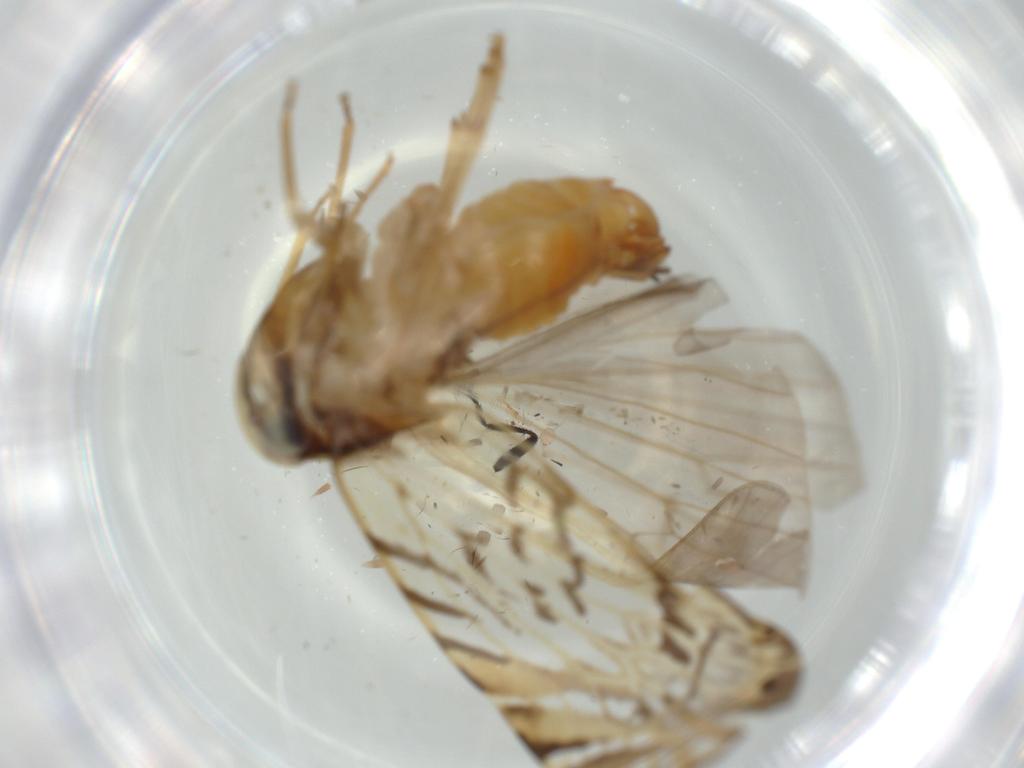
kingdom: Animalia
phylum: Arthropoda
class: Insecta
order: Hemiptera
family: Cixiidae
